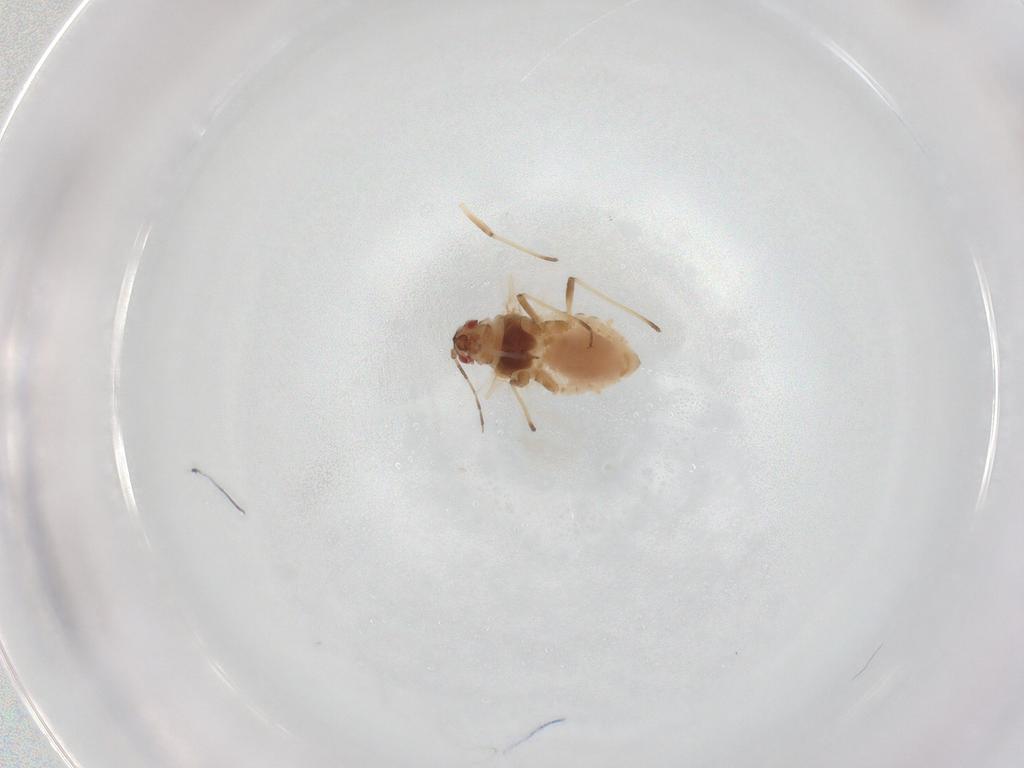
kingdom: Animalia
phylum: Arthropoda
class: Insecta
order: Hemiptera
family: Aphididae
